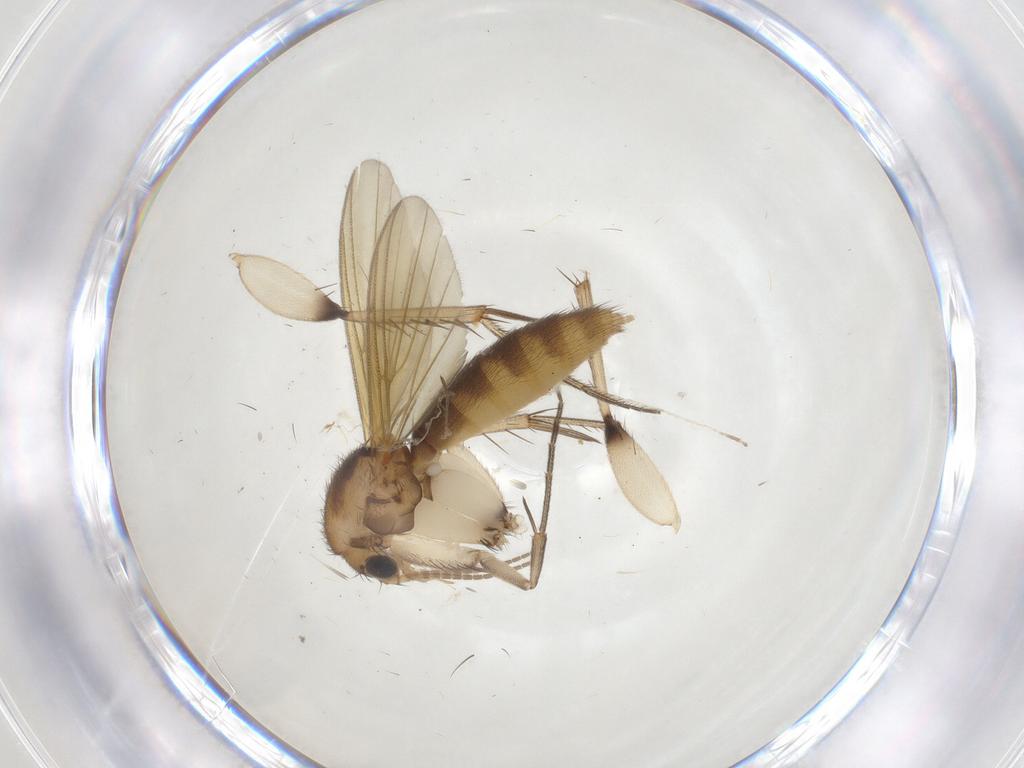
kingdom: Animalia
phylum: Arthropoda
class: Insecta
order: Diptera
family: Mycetophilidae
